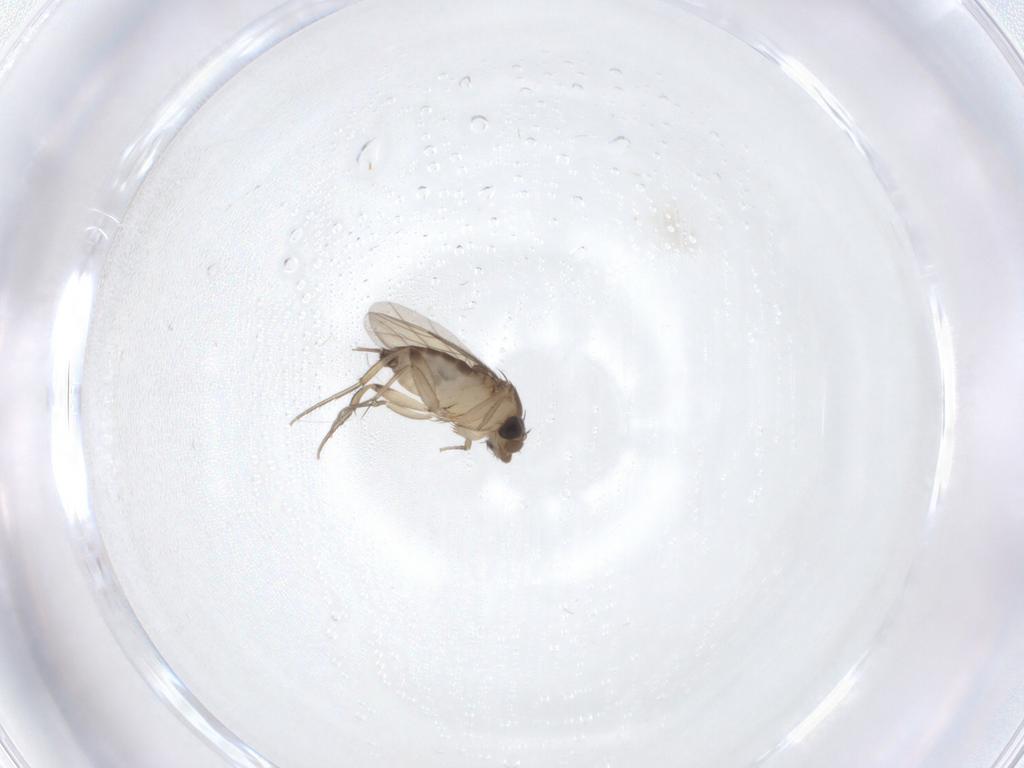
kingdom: Animalia
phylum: Arthropoda
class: Insecta
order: Diptera
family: Phoridae
